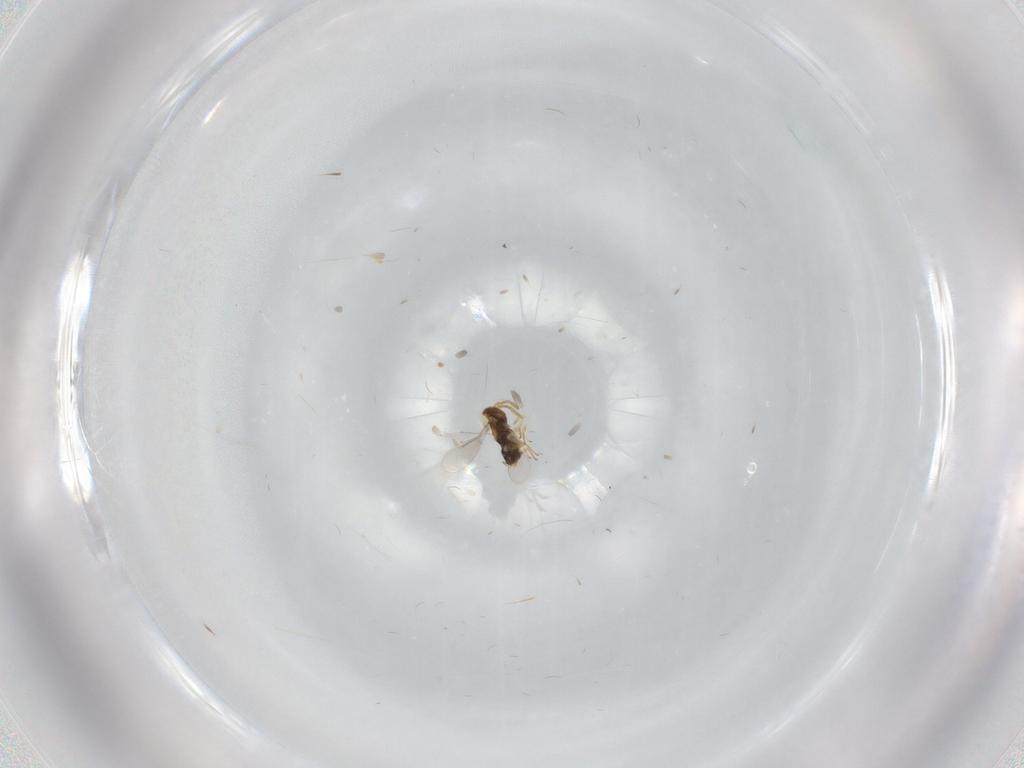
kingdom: Animalia
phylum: Arthropoda
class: Insecta
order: Hymenoptera
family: Aphelinidae
